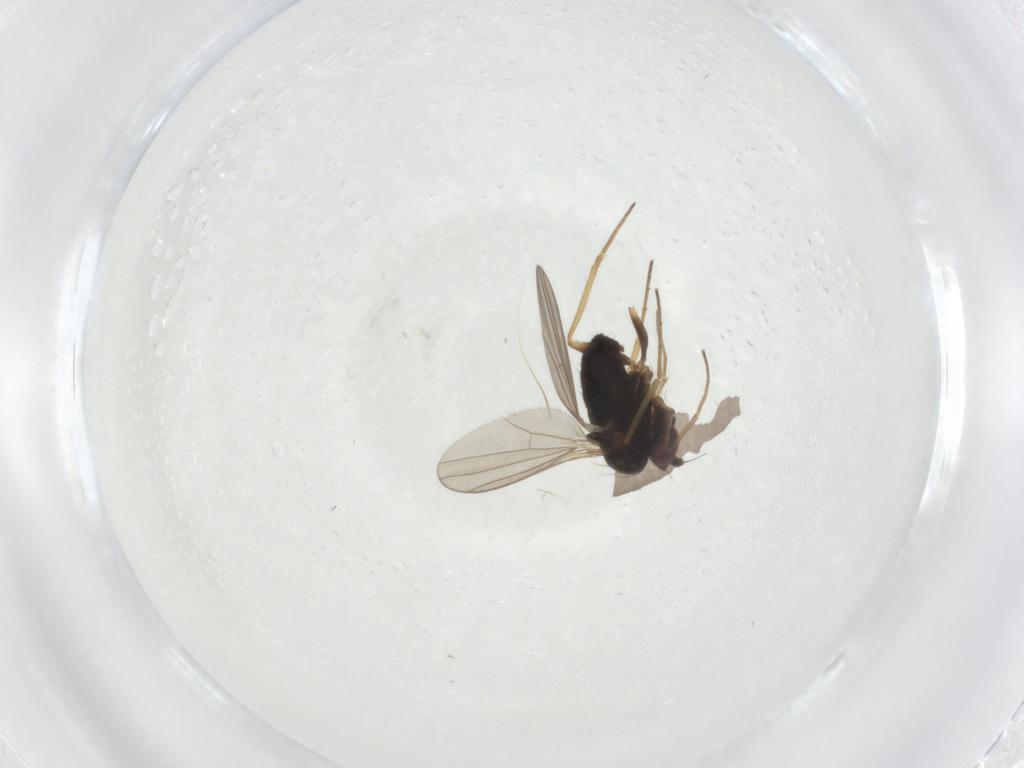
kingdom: Animalia
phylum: Arthropoda
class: Insecta
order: Diptera
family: Dolichopodidae
